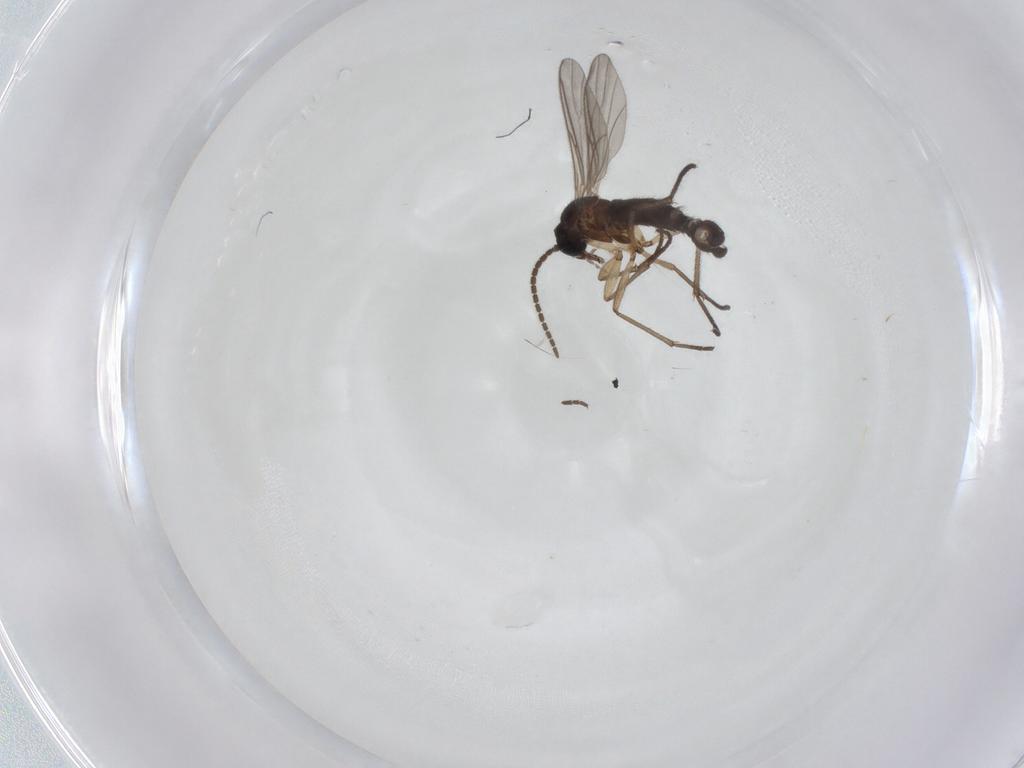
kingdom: Animalia
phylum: Arthropoda
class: Insecta
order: Diptera
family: Sciaridae
